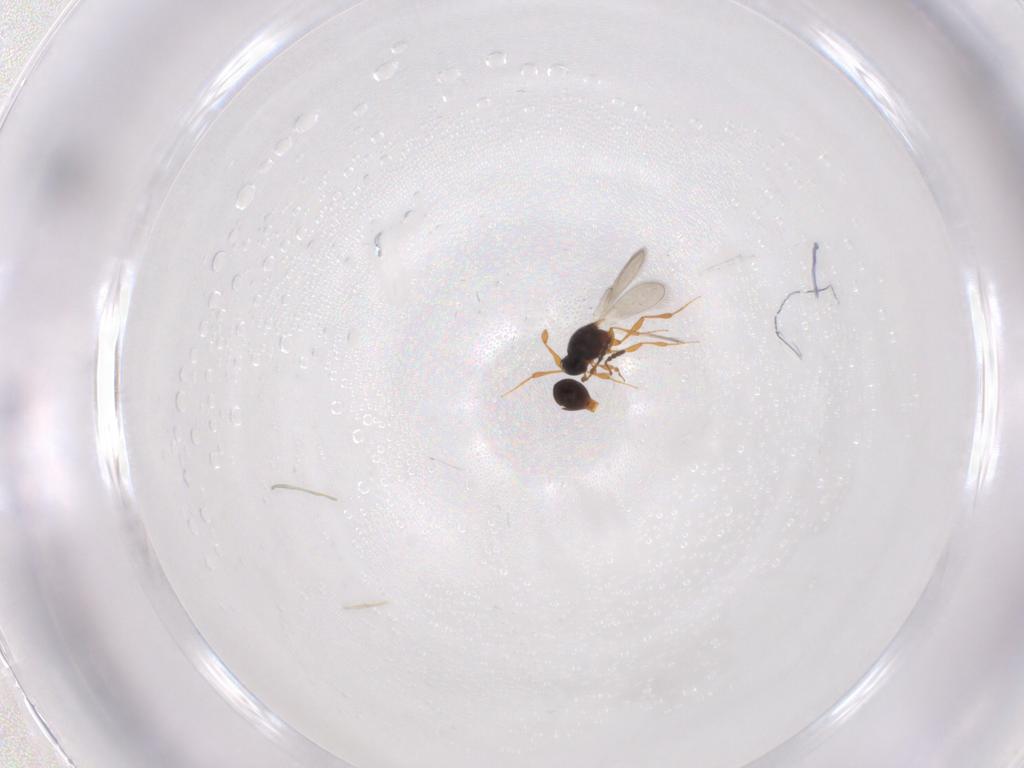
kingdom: Animalia
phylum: Arthropoda
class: Insecta
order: Hymenoptera
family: Platygastridae
